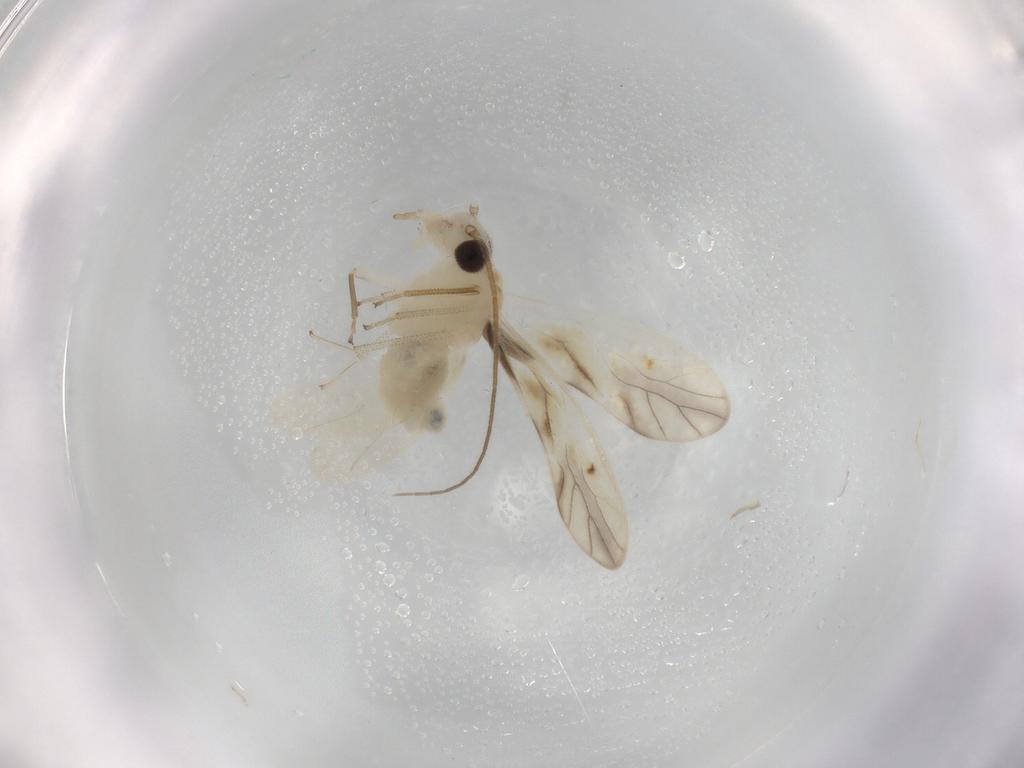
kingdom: Animalia
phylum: Arthropoda
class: Insecta
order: Psocodea
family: Caeciliusidae
